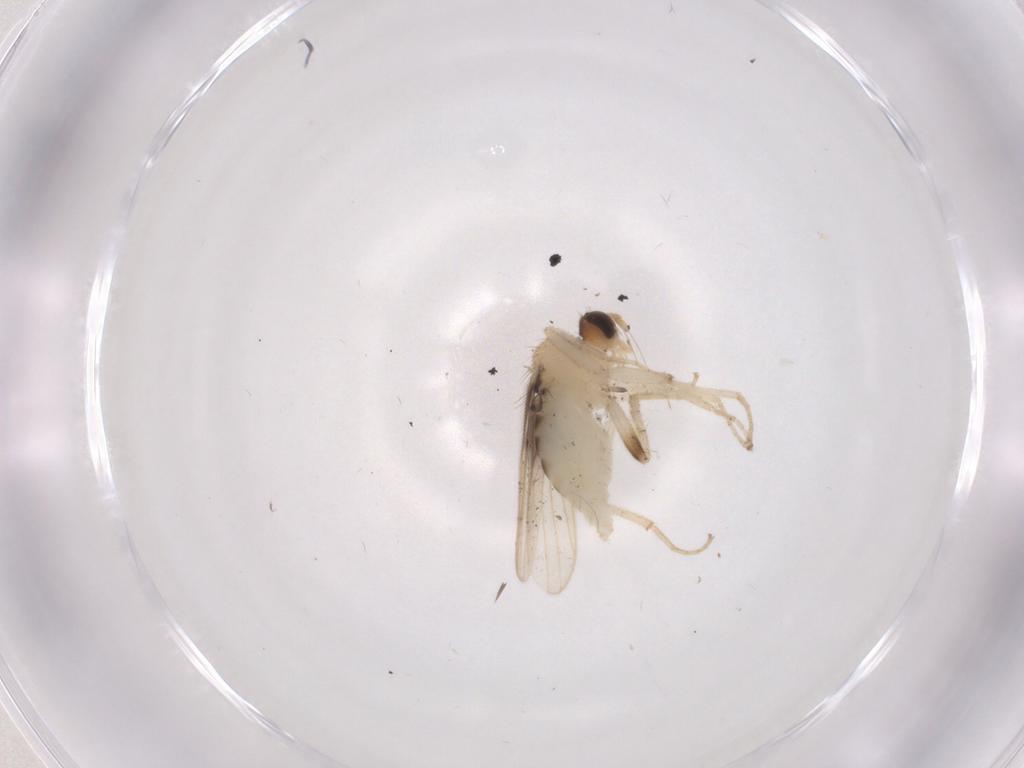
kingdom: Animalia
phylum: Arthropoda
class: Insecta
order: Diptera
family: Hybotidae
